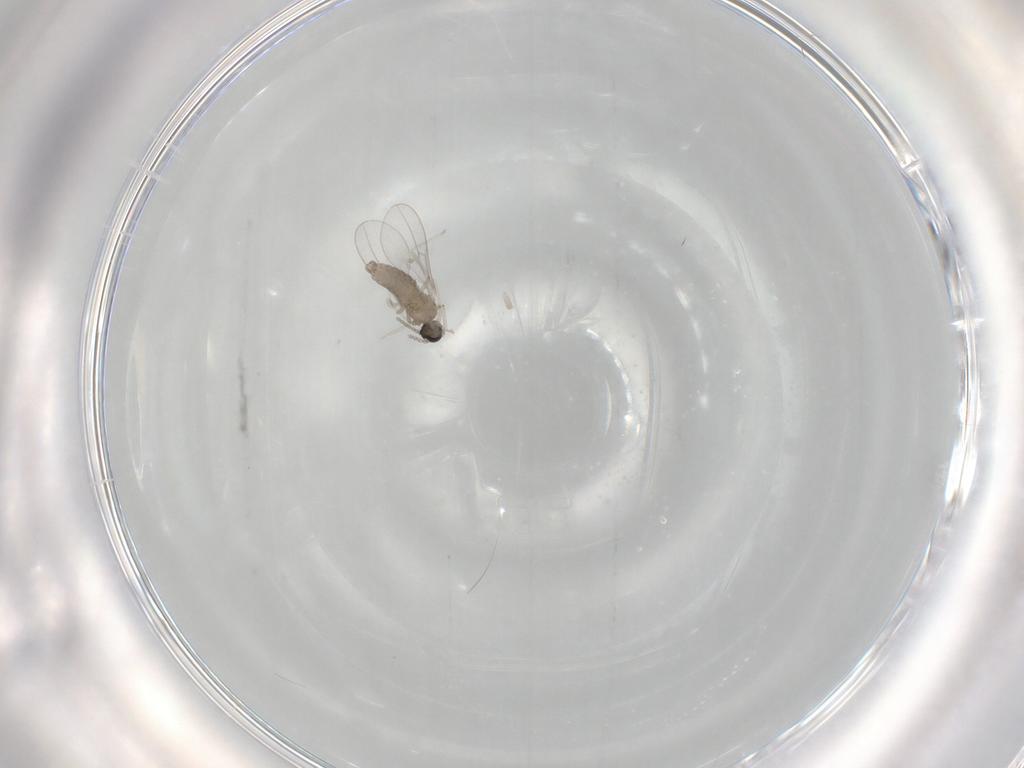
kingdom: Animalia
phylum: Arthropoda
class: Insecta
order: Diptera
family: Sciaridae
